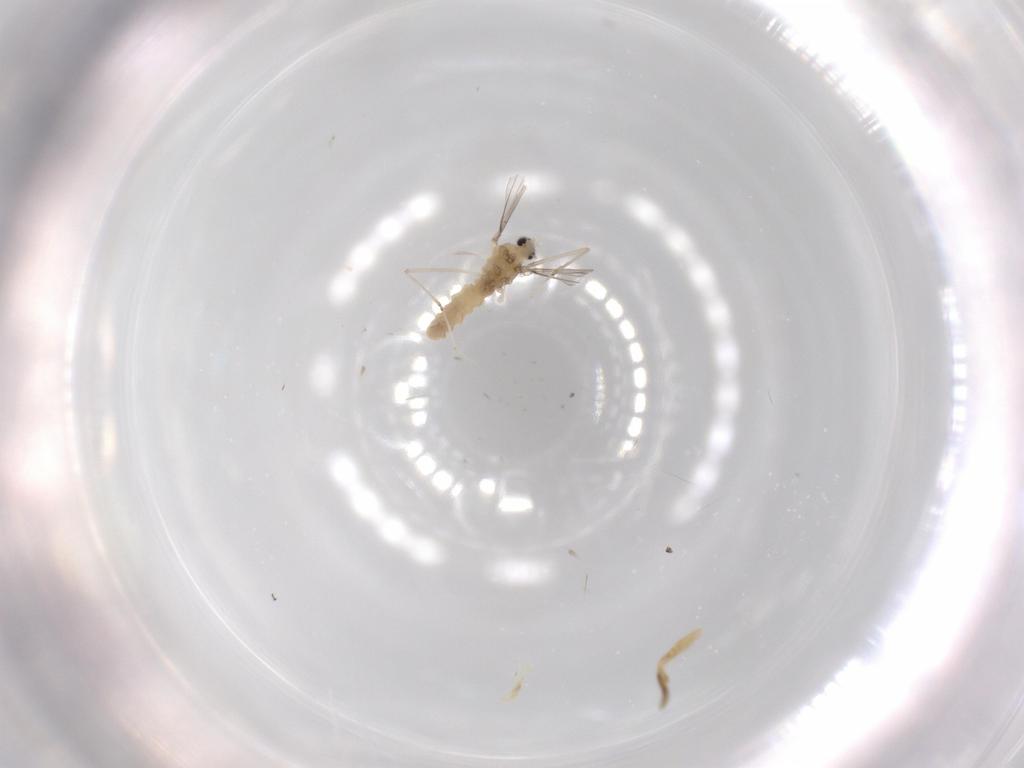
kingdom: Animalia
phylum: Arthropoda
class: Insecta
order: Diptera
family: Cecidomyiidae
